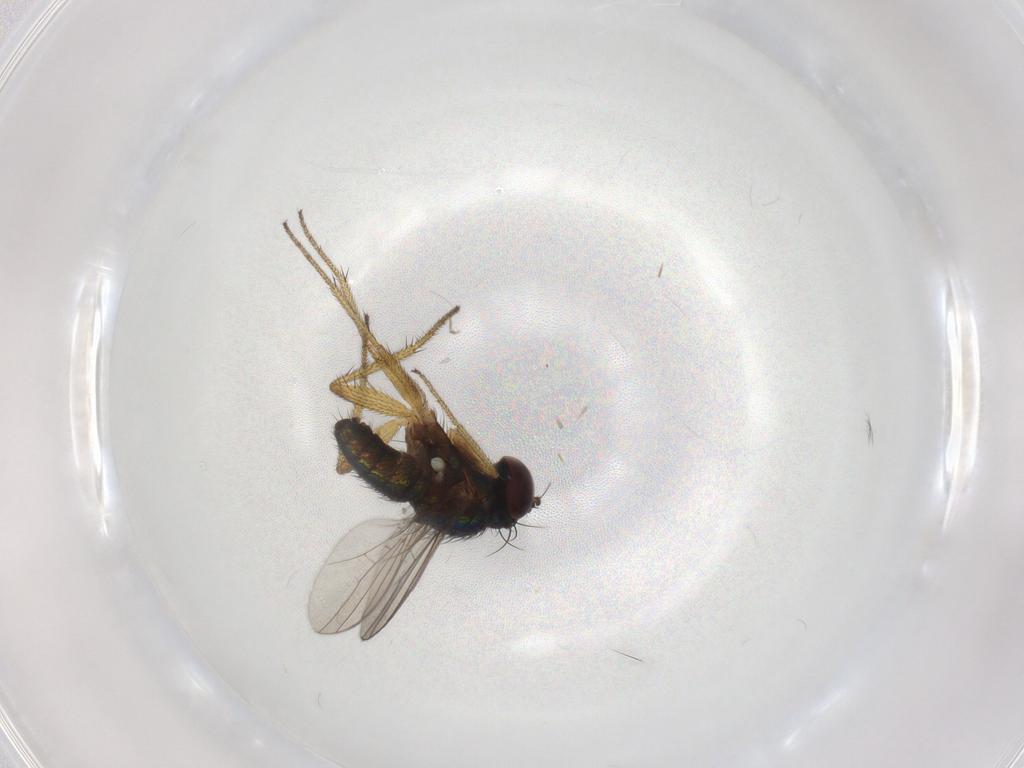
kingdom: Animalia
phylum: Arthropoda
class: Insecta
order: Diptera
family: Dolichopodidae
